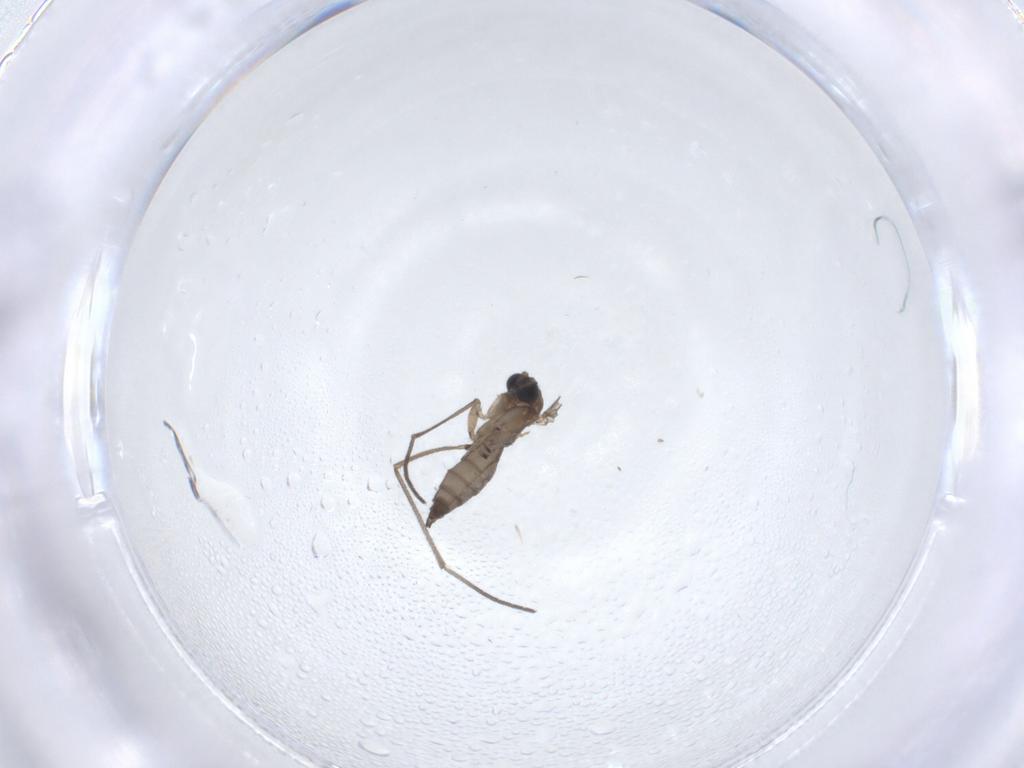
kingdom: Animalia
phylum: Arthropoda
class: Insecta
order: Diptera
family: Sciaridae
